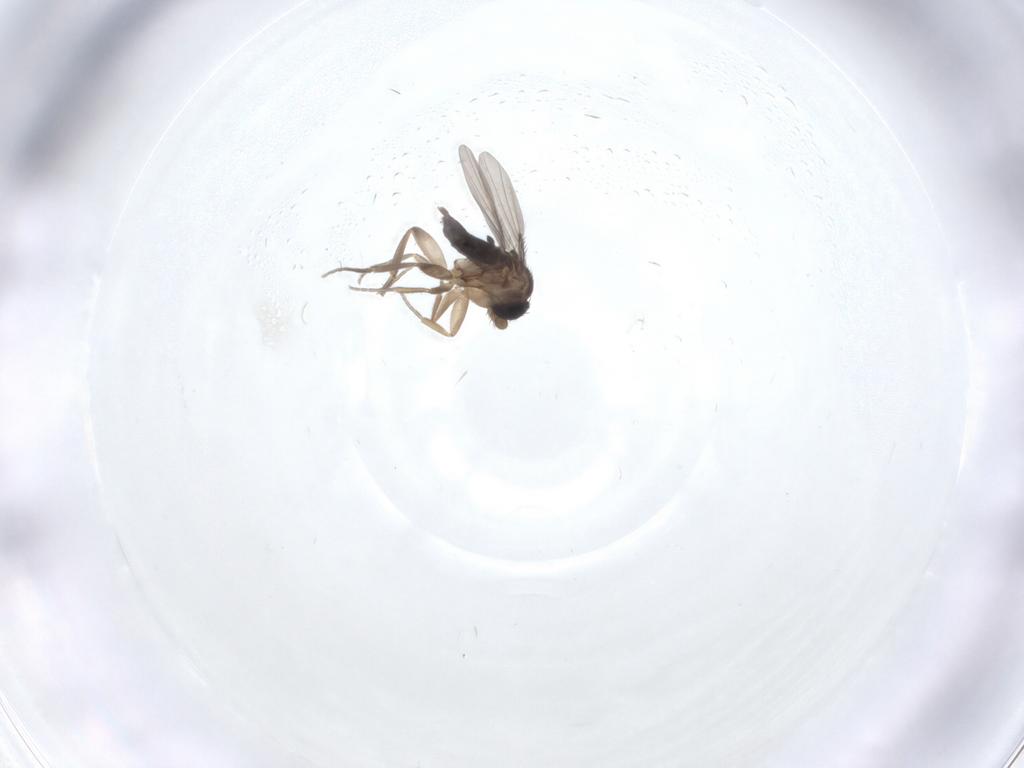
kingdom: Animalia
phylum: Arthropoda
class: Insecta
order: Diptera
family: Phoridae
